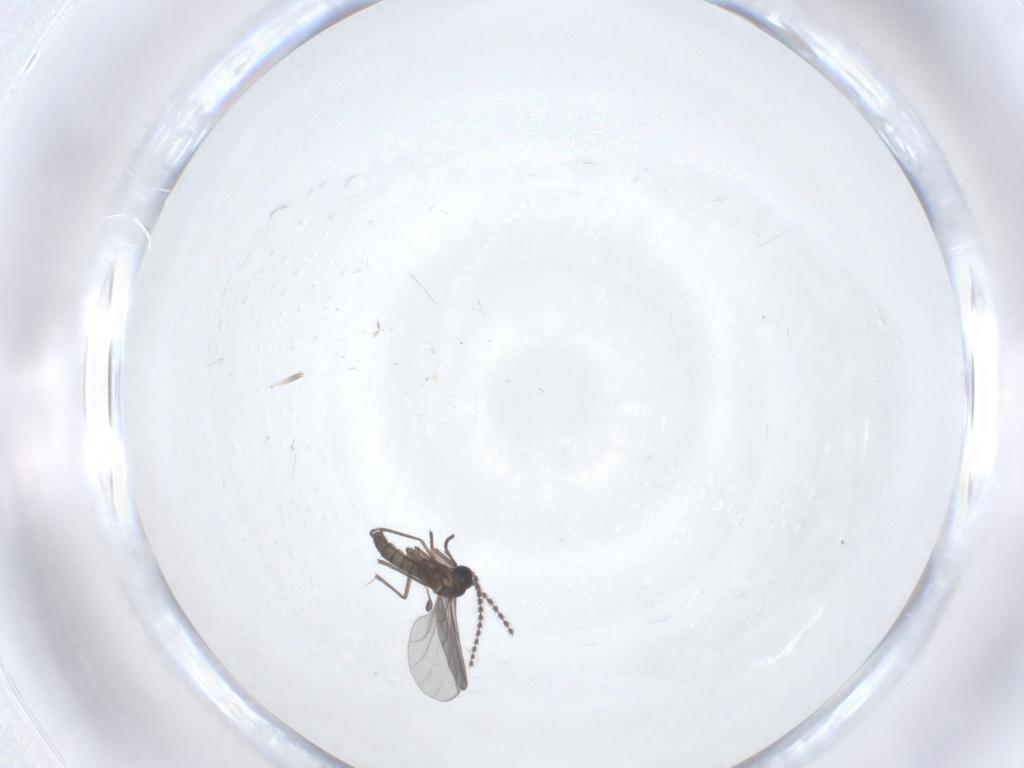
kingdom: Animalia
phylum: Arthropoda
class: Insecta
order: Diptera
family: Cecidomyiidae
